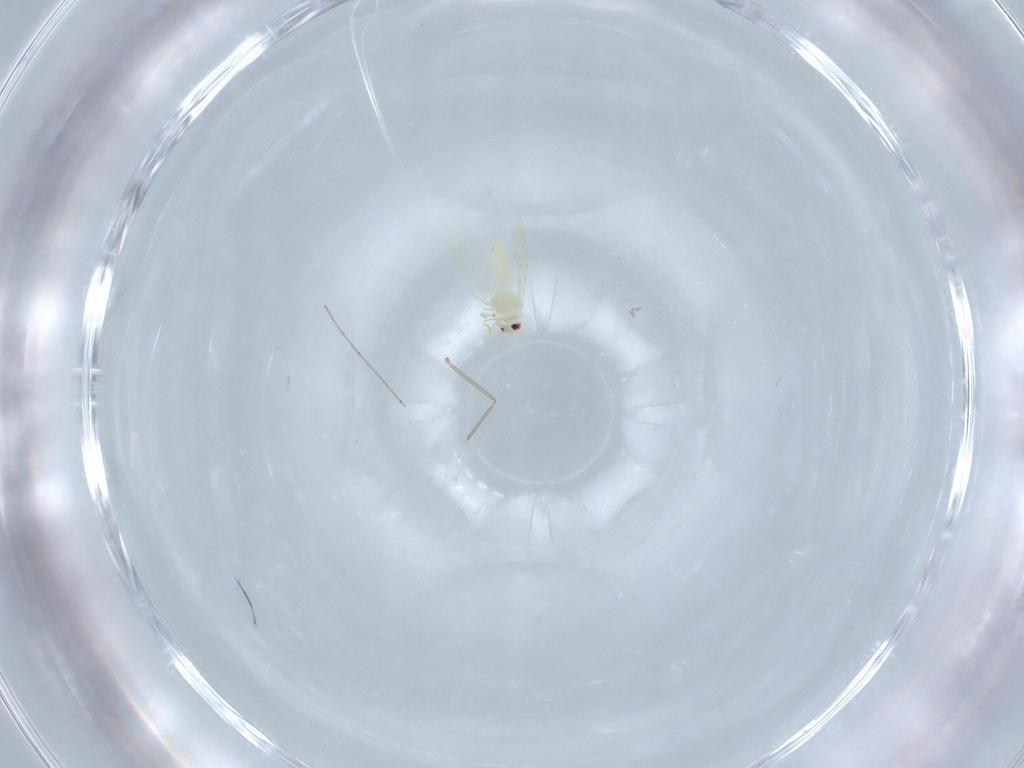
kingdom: Animalia
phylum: Arthropoda
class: Insecta
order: Hemiptera
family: Aleyrodidae
